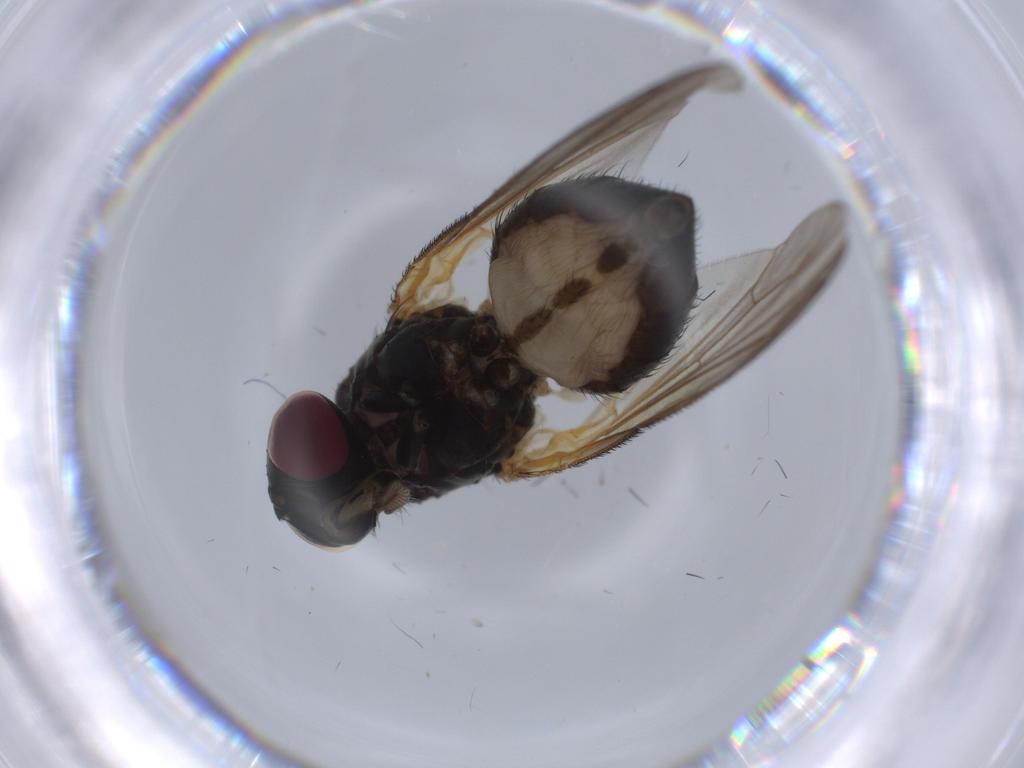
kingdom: Animalia
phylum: Arthropoda
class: Insecta
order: Diptera
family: Xylophagidae
